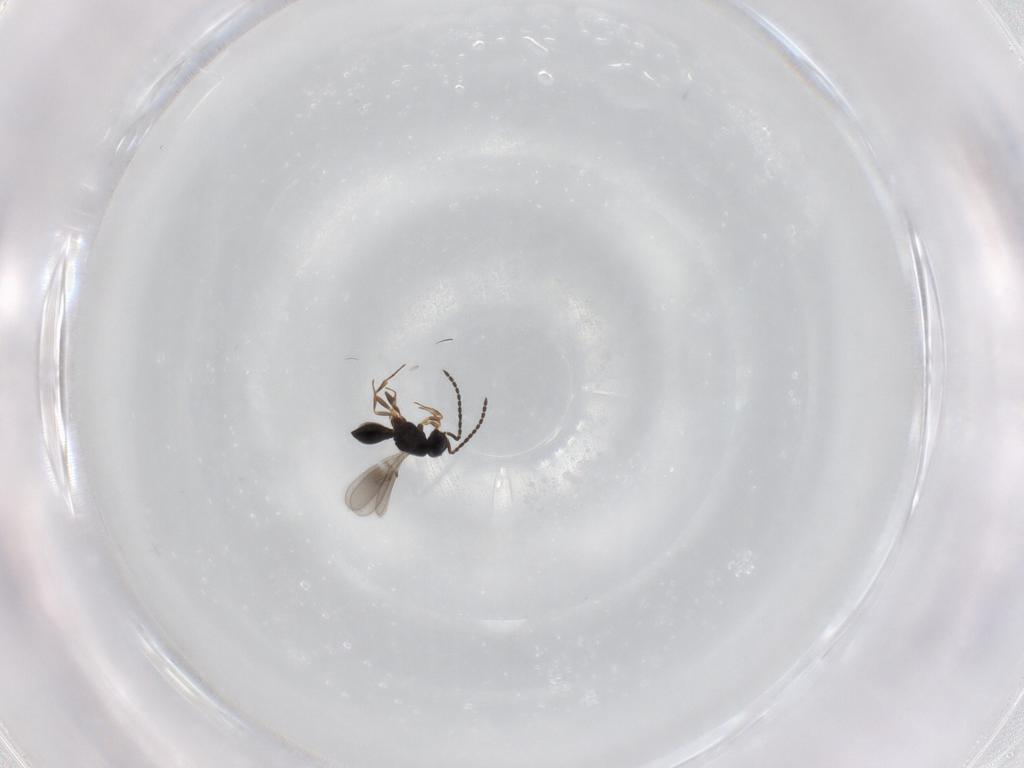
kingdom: Animalia
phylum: Arthropoda
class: Insecta
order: Hymenoptera
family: Scelionidae
